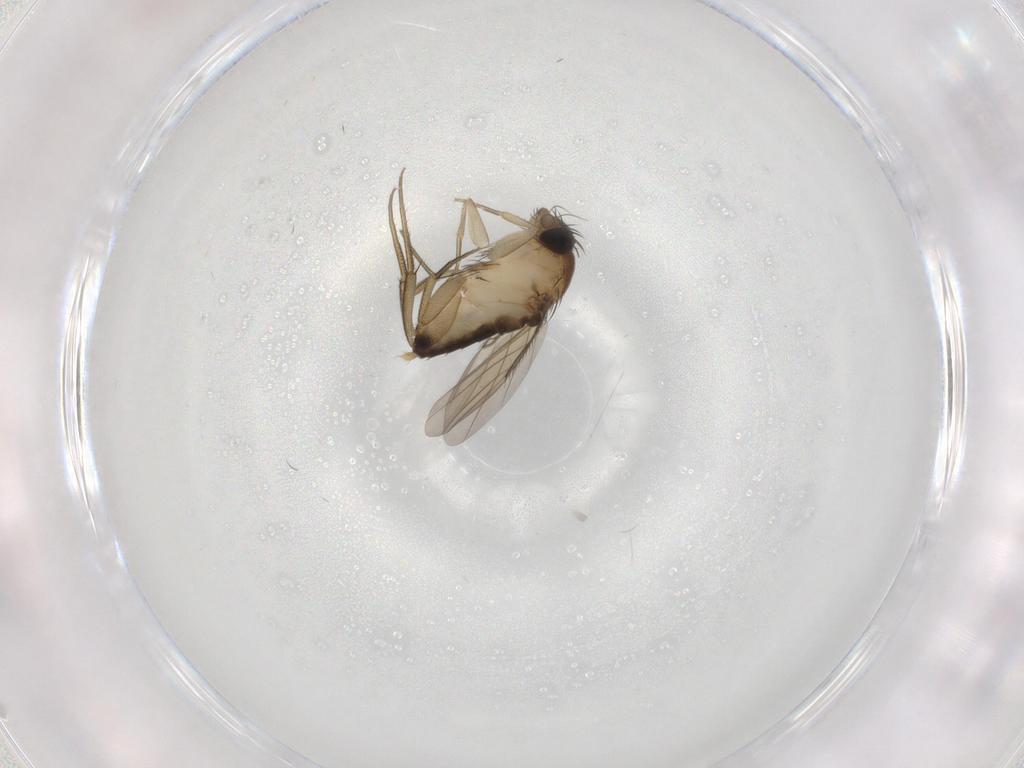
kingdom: Animalia
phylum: Arthropoda
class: Insecta
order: Diptera
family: Phoridae
